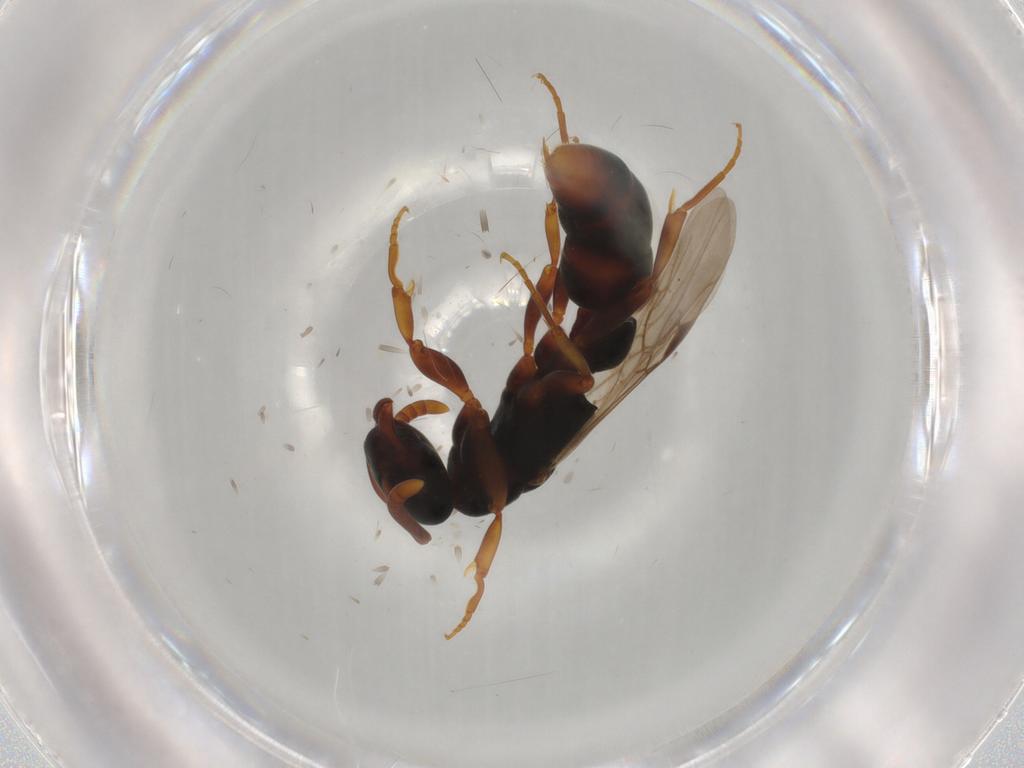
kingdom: Animalia
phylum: Arthropoda
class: Insecta
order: Hymenoptera
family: Formicidae
